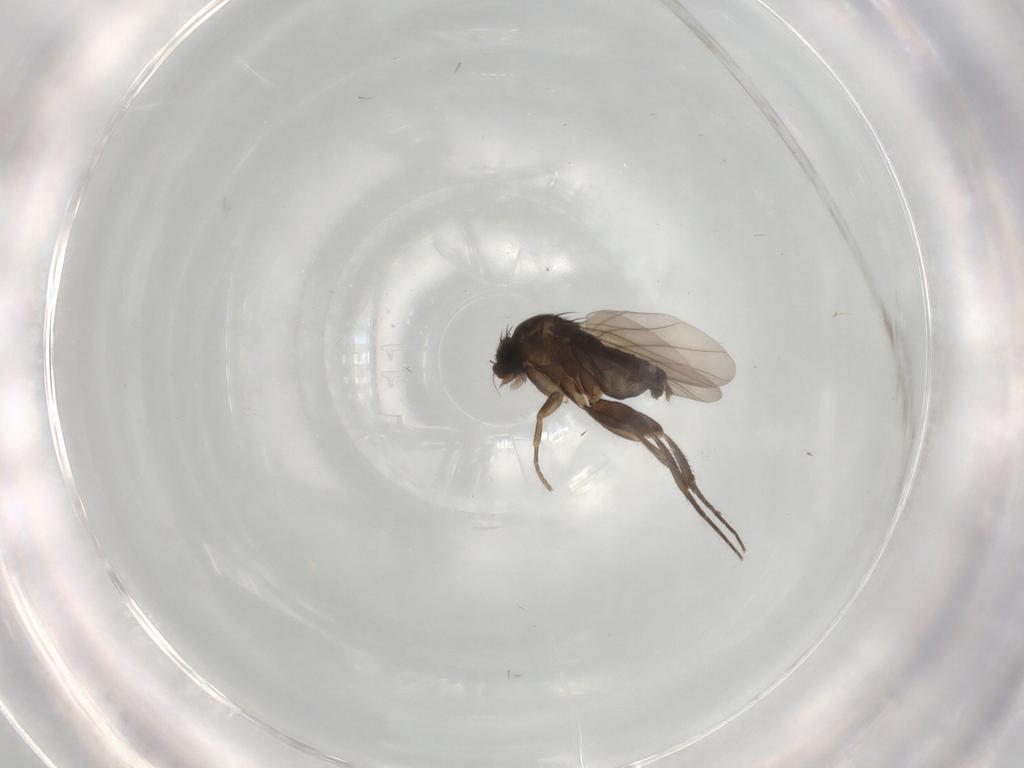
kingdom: Animalia
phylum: Arthropoda
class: Insecta
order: Diptera
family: Phoridae
